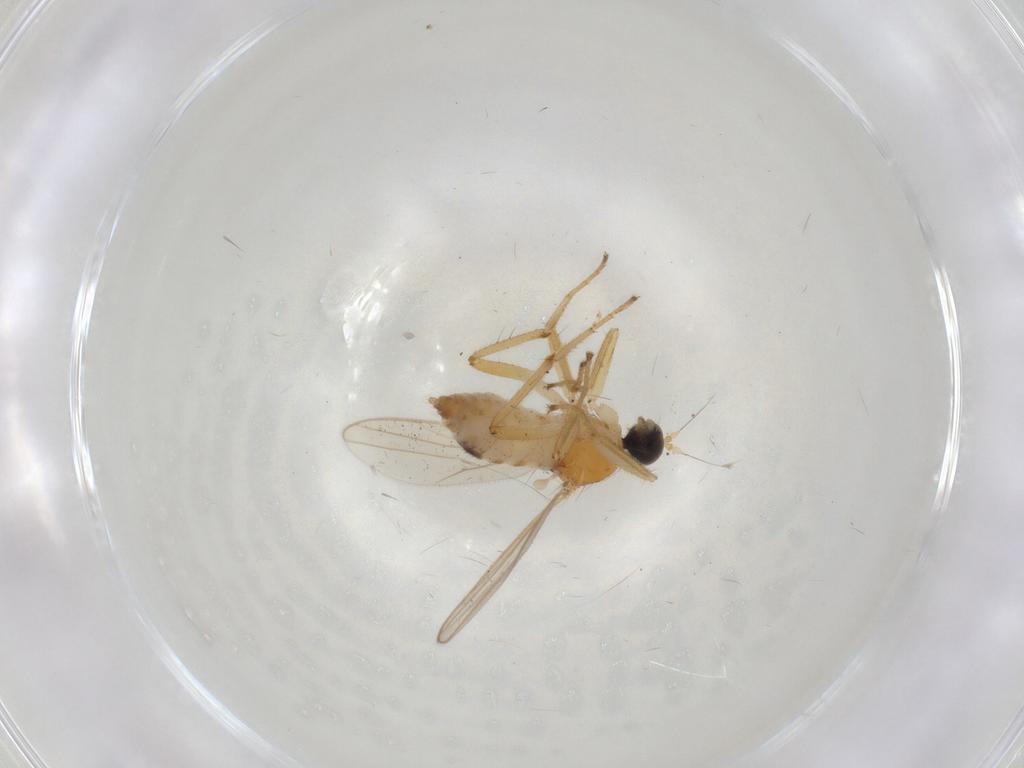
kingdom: Animalia
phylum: Arthropoda
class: Insecta
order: Diptera
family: Hybotidae
